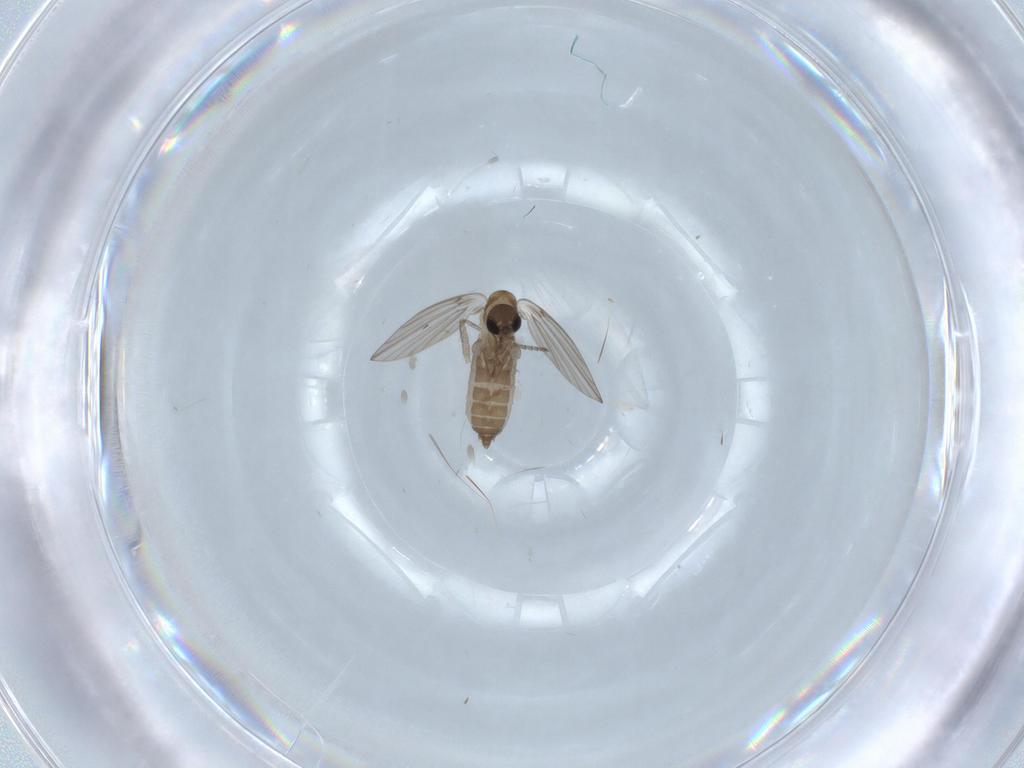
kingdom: Animalia
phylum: Arthropoda
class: Insecta
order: Diptera
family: Psychodidae
